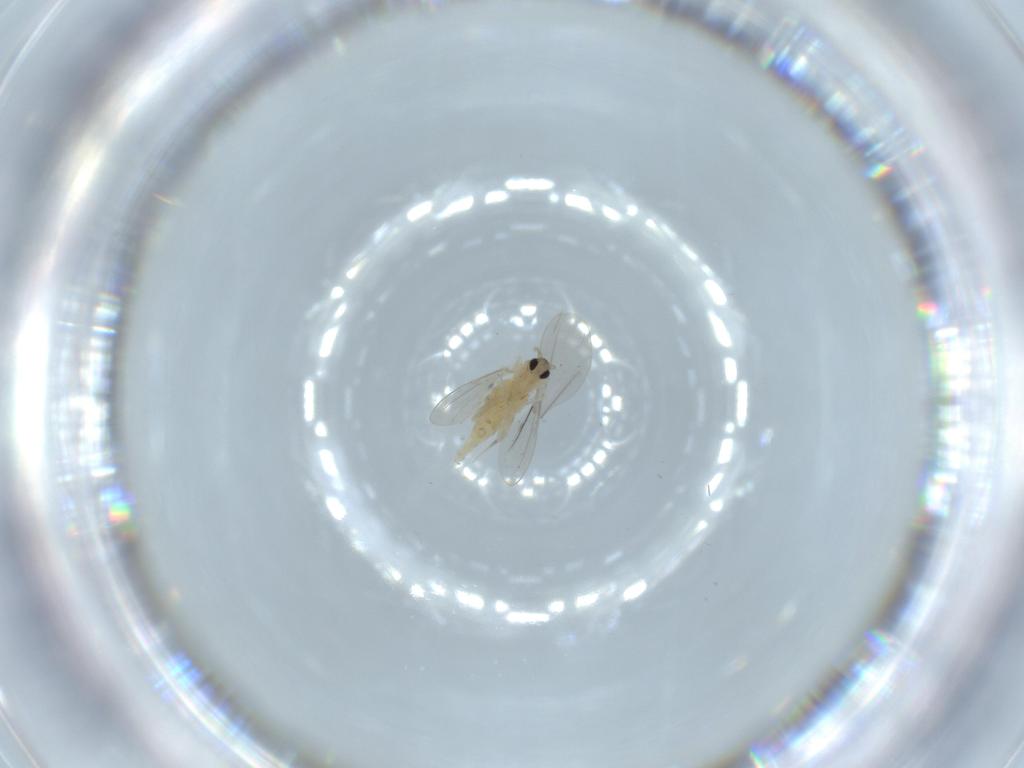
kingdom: Animalia
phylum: Arthropoda
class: Insecta
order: Diptera
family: Cecidomyiidae
